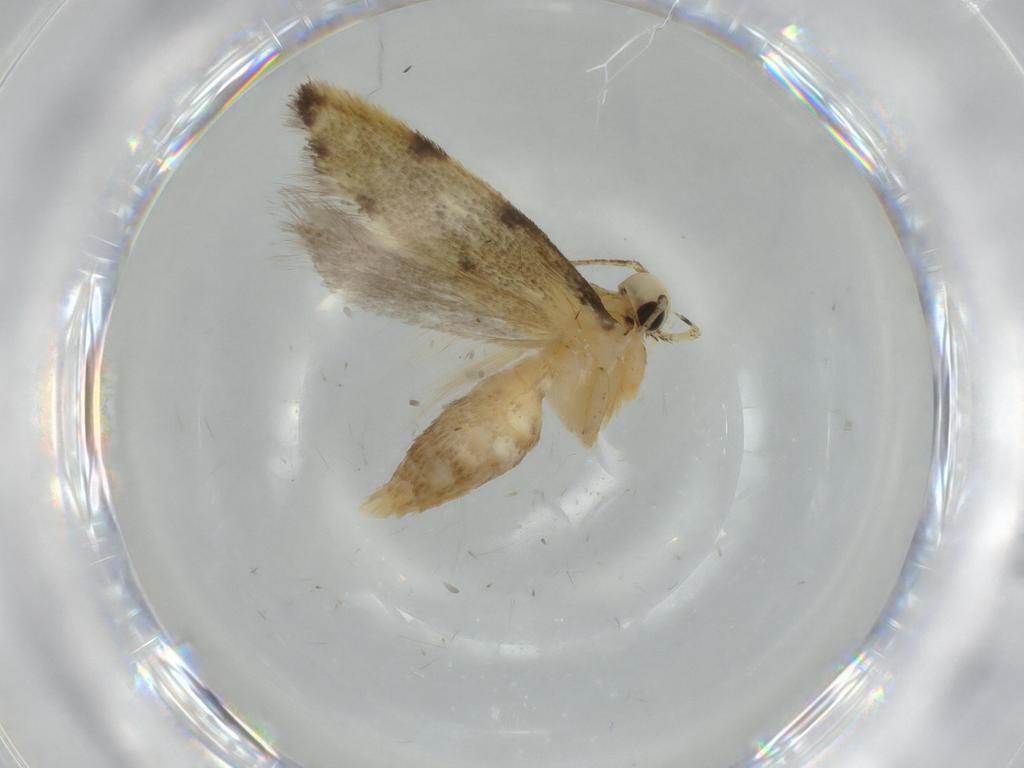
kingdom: Animalia
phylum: Arthropoda
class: Insecta
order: Lepidoptera
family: Autostichidae
